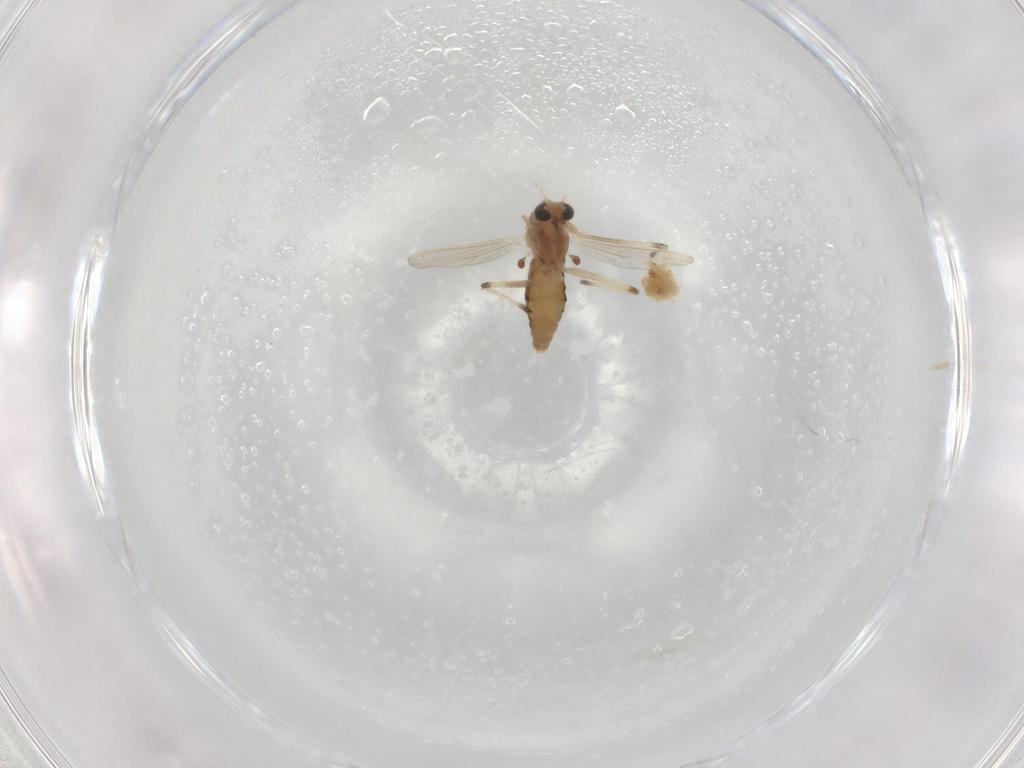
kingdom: Animalia
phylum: Arthropoda
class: Insecta
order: Diptera
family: Chironomidae
